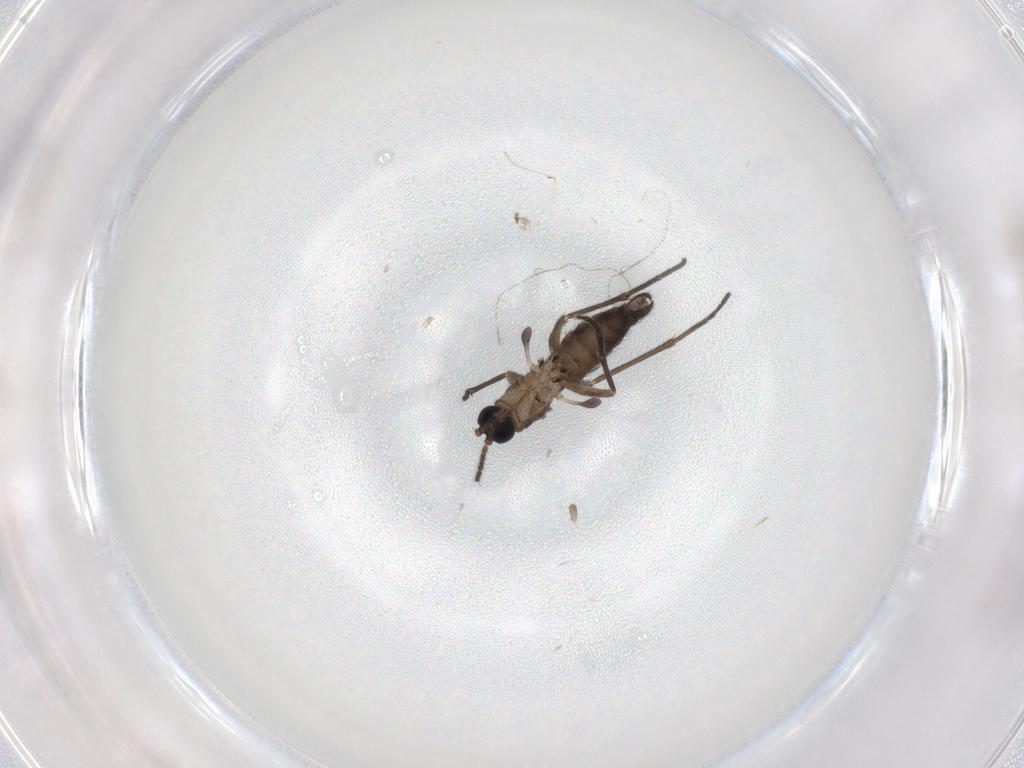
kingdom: Animalia
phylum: Arthropoda
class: Insecta
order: Diptera
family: Sciaridae
